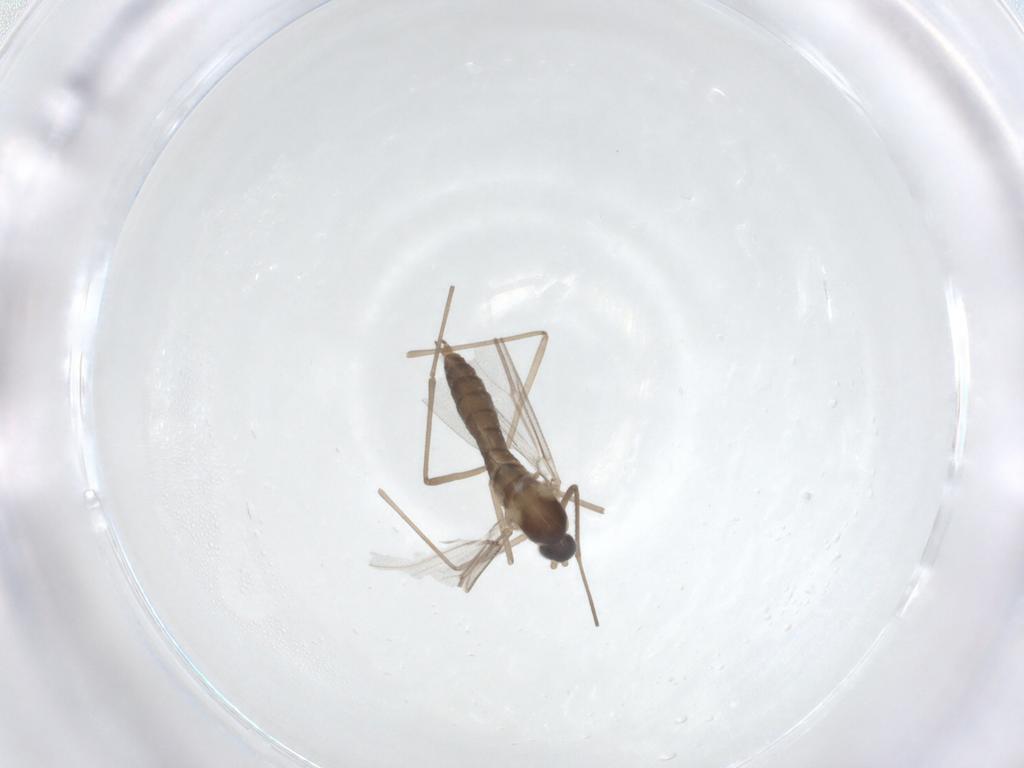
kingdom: Animalia
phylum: Arthropoda
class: Insecta
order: Diptera
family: Cecidomyiidae
